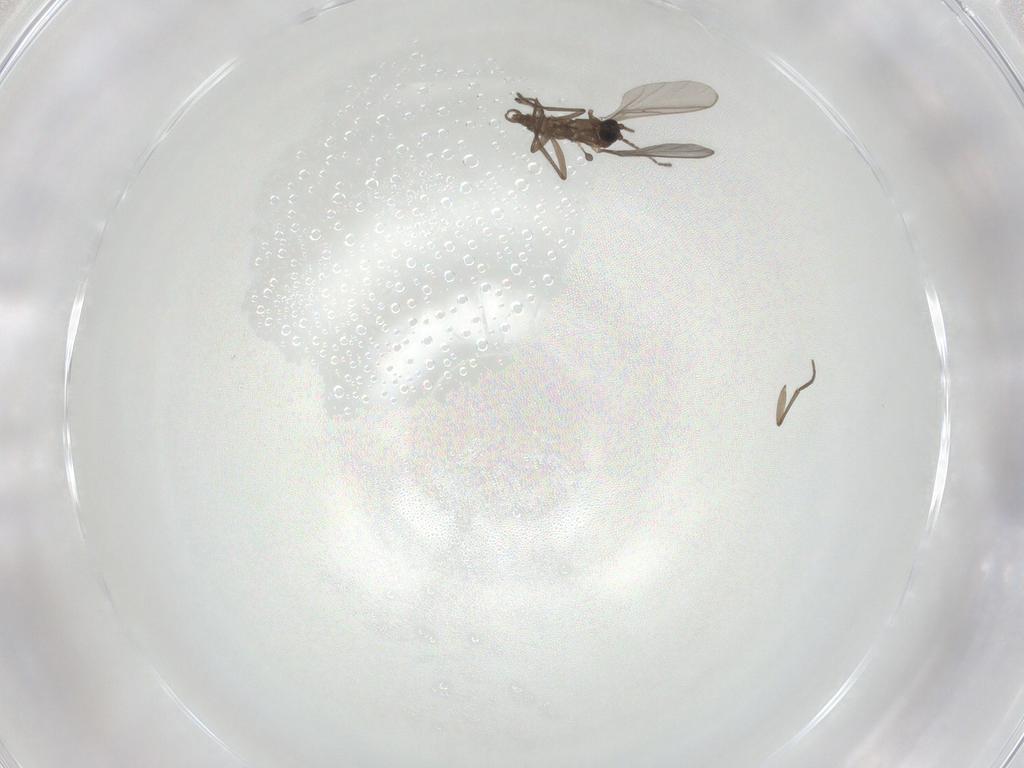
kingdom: Animalia
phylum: Arthropoda
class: Insecta
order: Diptera
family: Sciaridae
